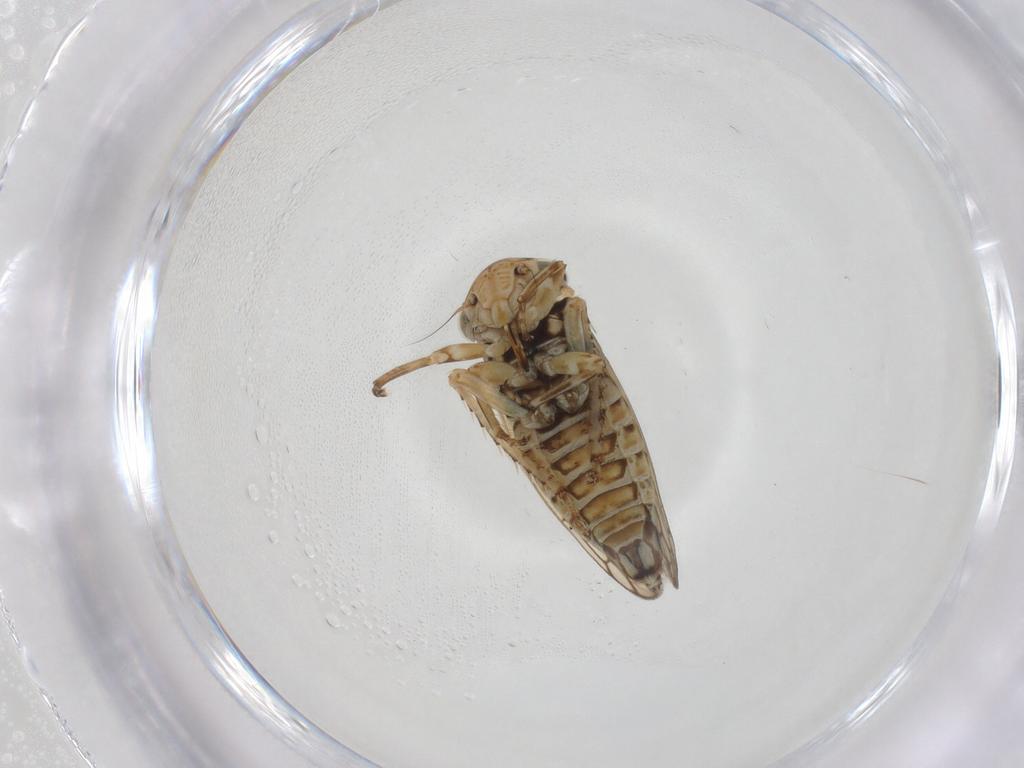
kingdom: Animalia
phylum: Arthropoda
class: Insecta
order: Hemiptera
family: Cicadellidae
